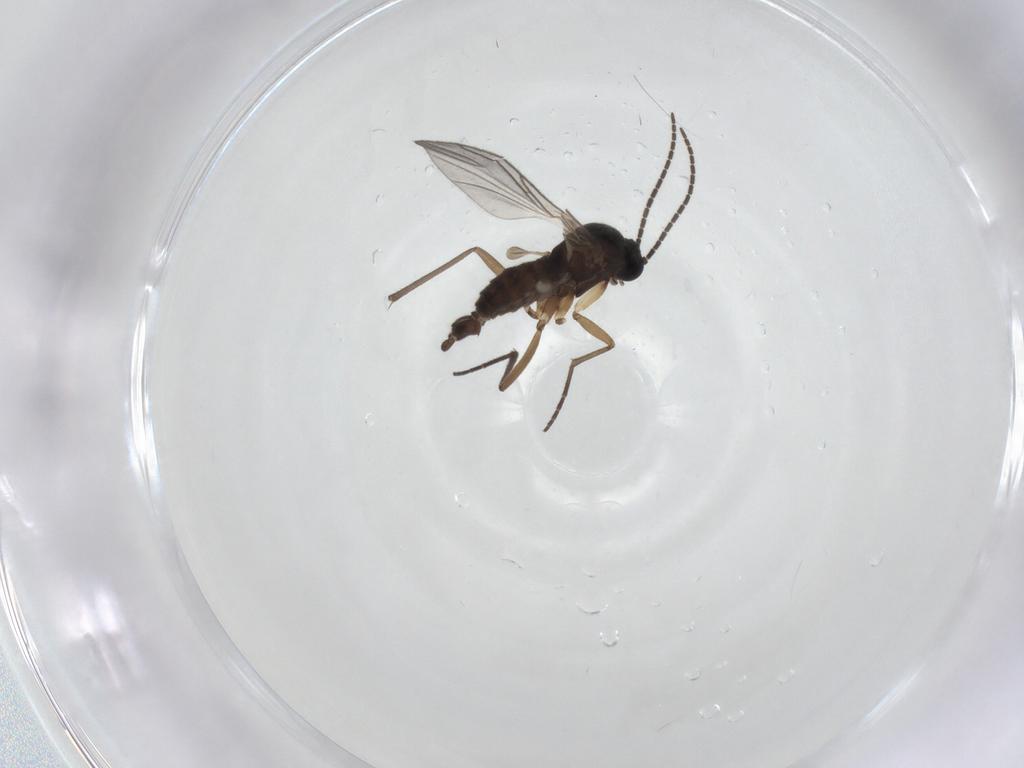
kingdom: Animalia
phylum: Arthropoda
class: Insecta
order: Diptera
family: Sciaridae
